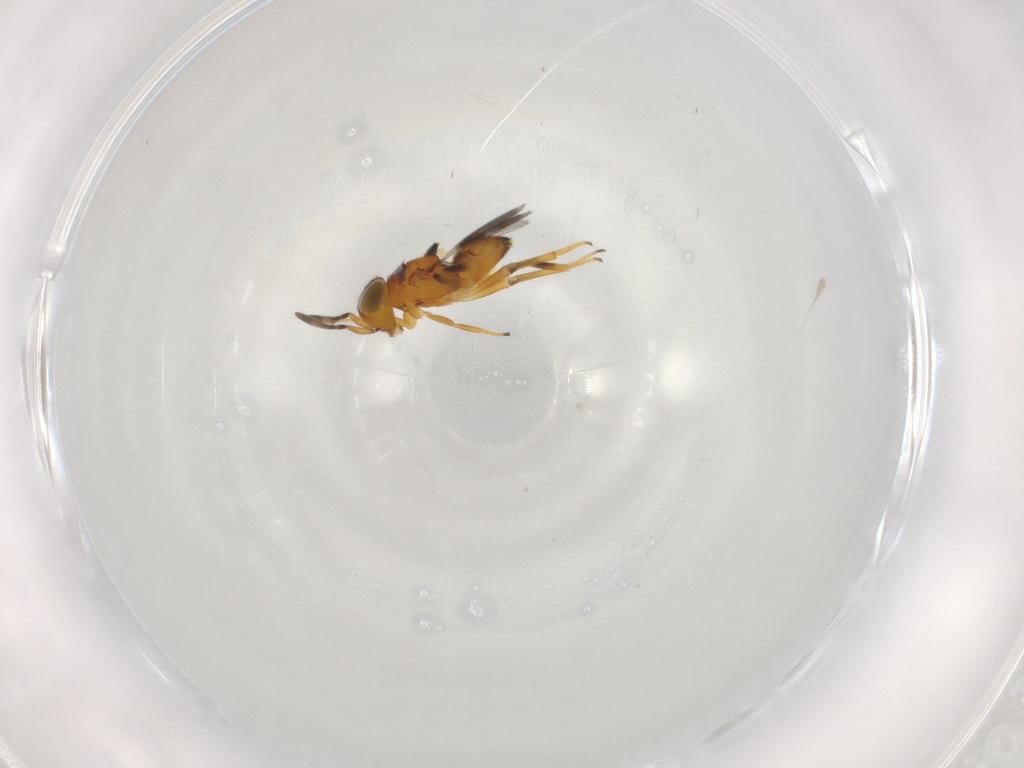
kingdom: Animalia
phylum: Arthropoda
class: Insecta
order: Hymenoptera
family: Encyrtidae
